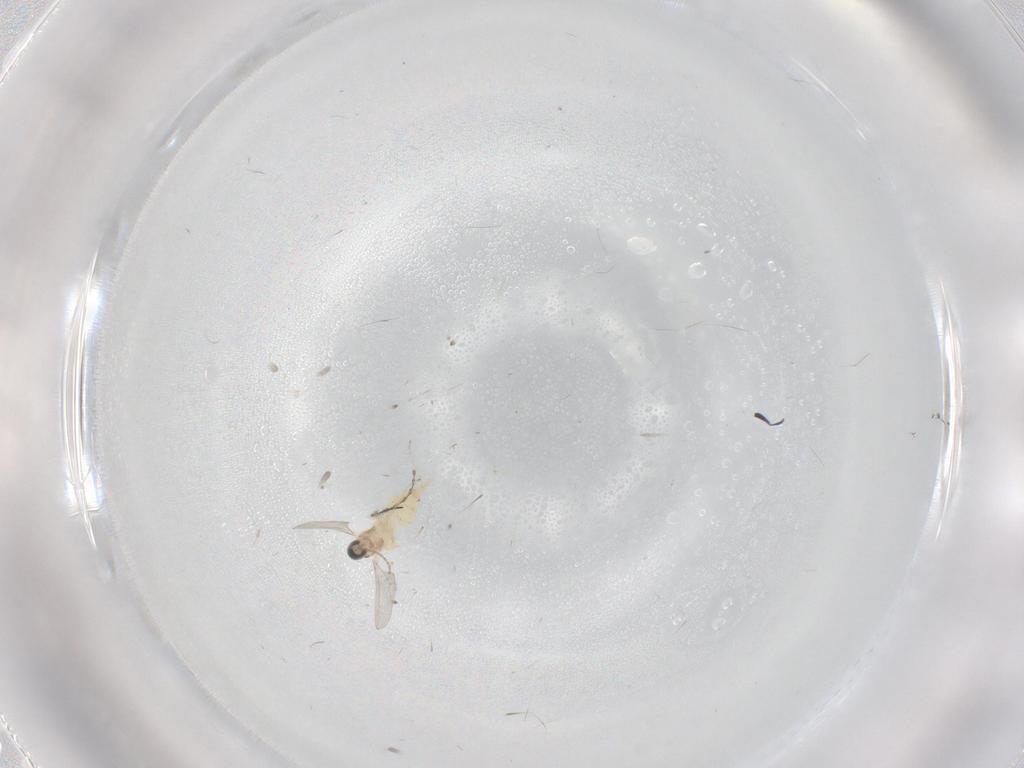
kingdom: Animalia
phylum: Arthropoda
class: Insecta
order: Diptera
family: Cecidomyiidae
